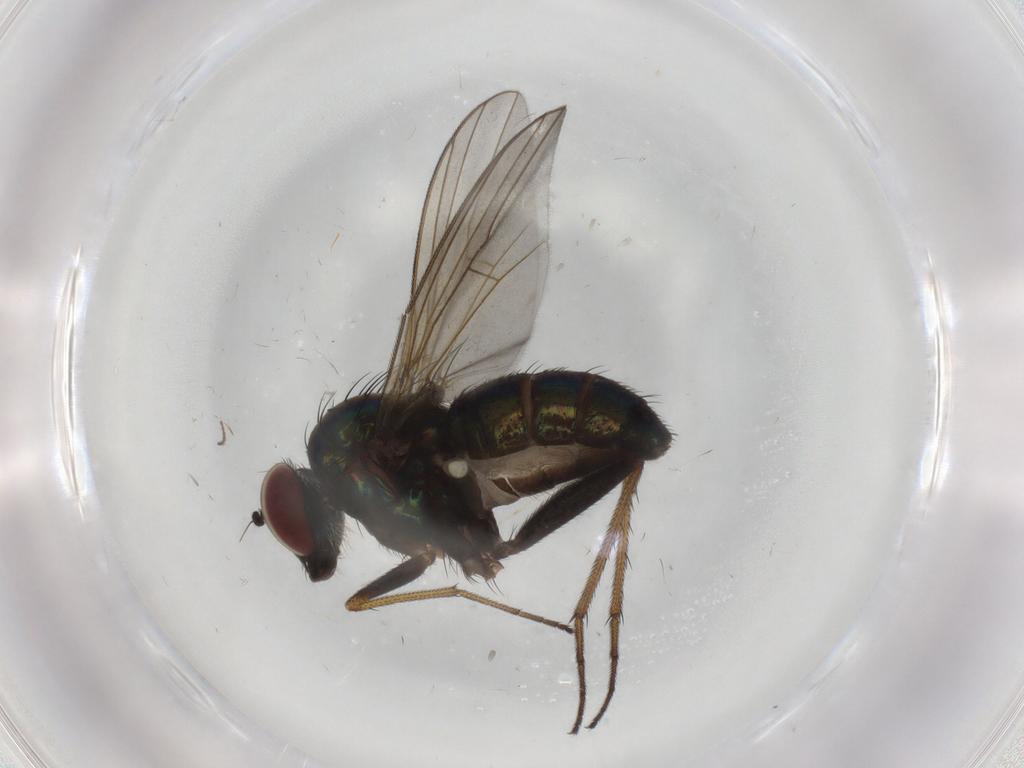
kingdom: Animalia
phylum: Arthropoda
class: Insecta
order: Diptera
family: Dolichopodidae
